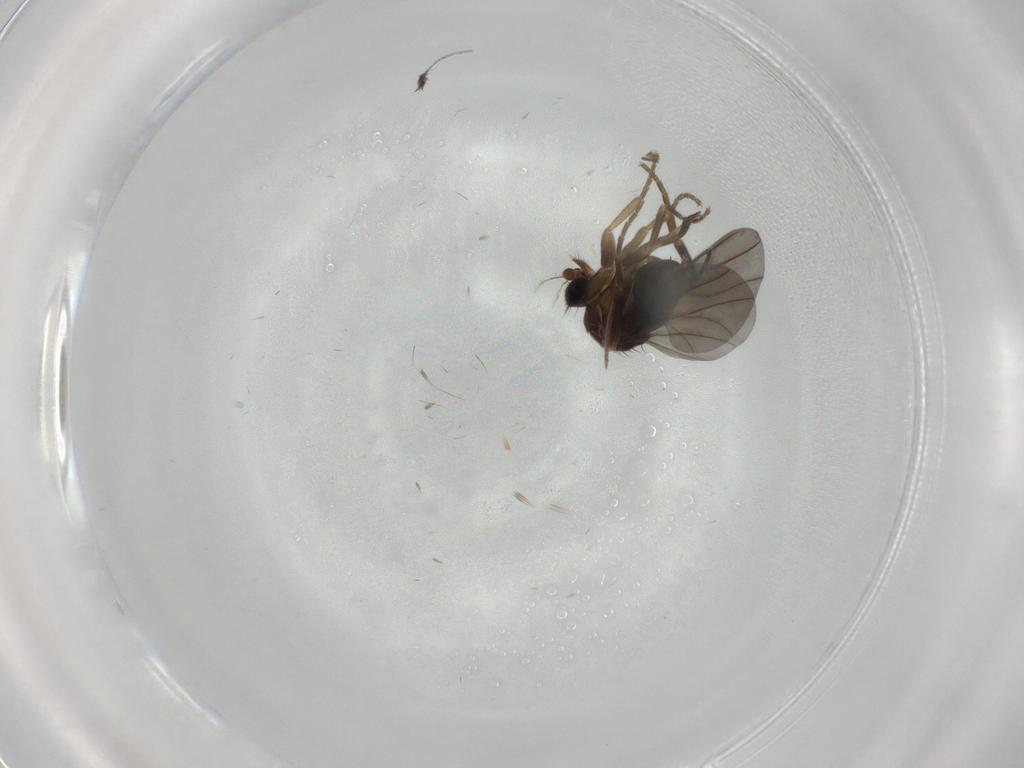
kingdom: Animalia
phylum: Arthropoda
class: Insecta
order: Diptera
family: Phoridae
